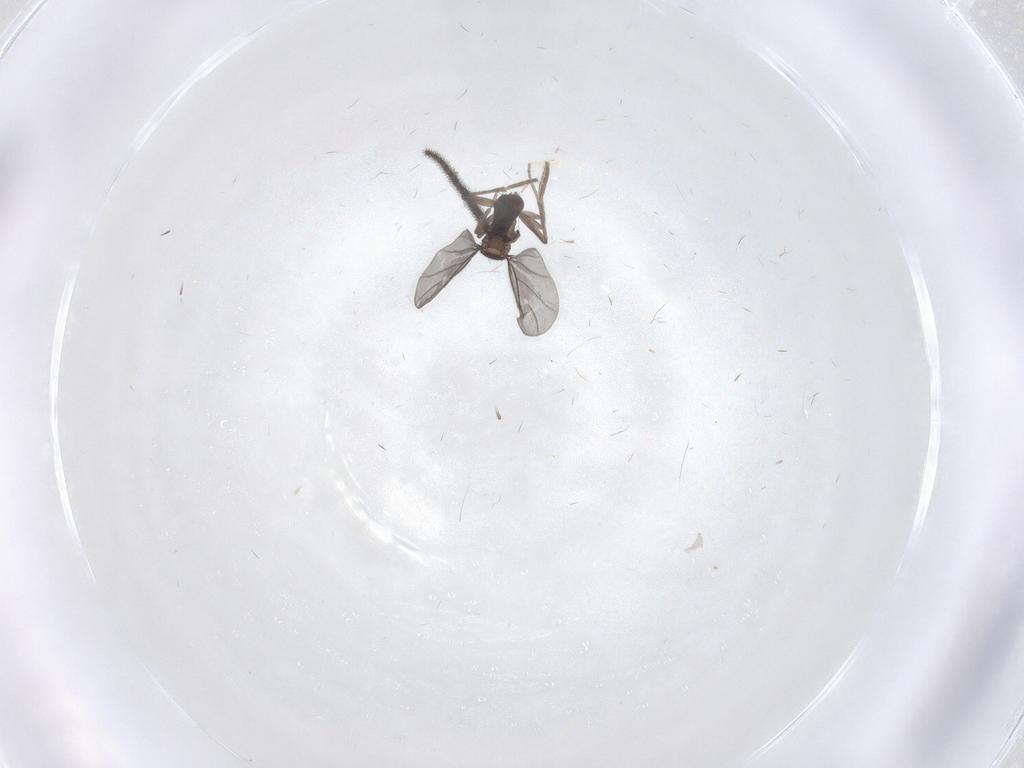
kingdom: Animalia
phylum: Arthropoda
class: Insecta
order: Diptera
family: Sciaridae
